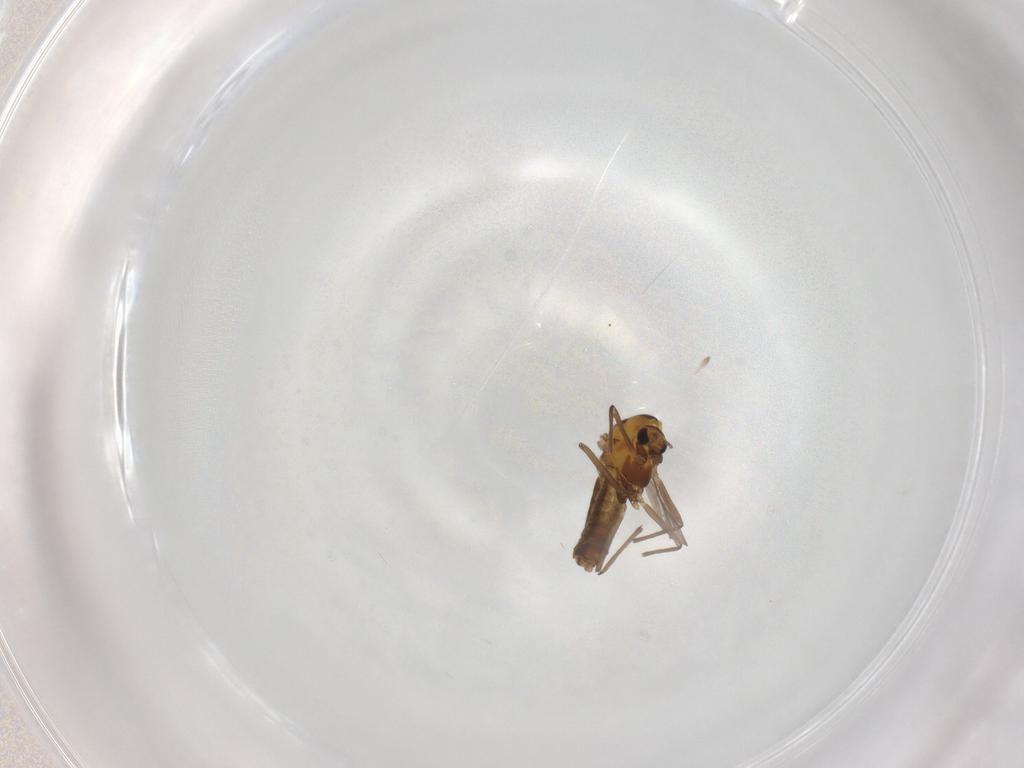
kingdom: Animalia
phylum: Arthropoda
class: Insecta
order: Diptera
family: Chironomidae
